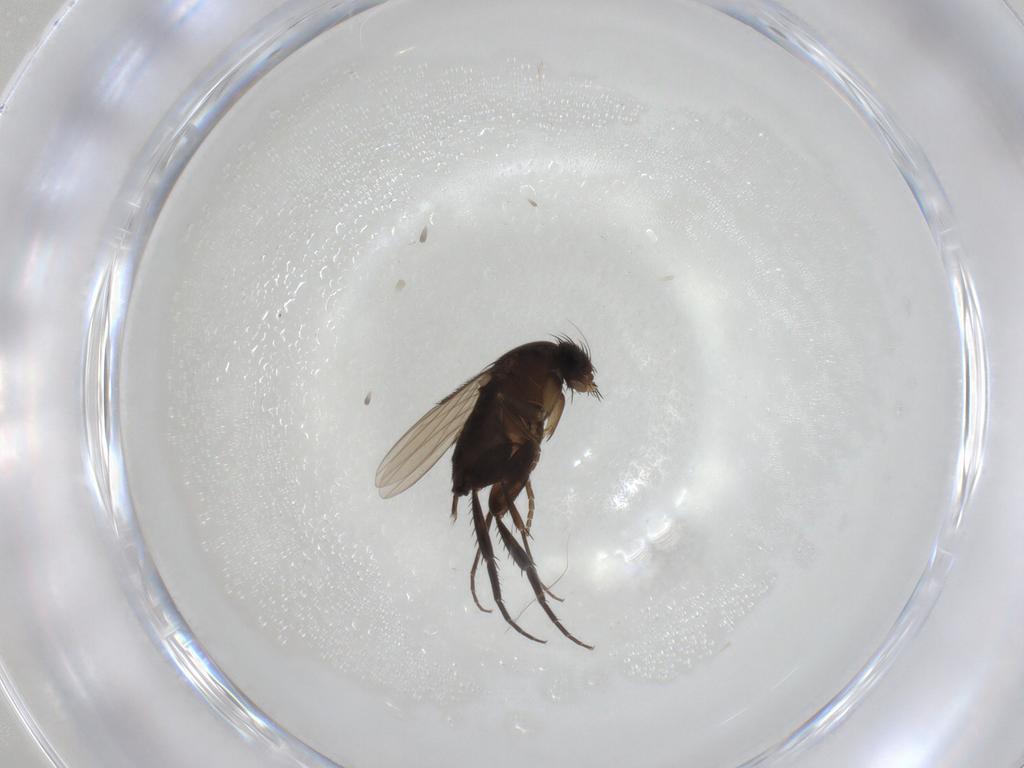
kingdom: Animalia
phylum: Arthropoda
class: Insecta
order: Diptera
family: Phoridae
